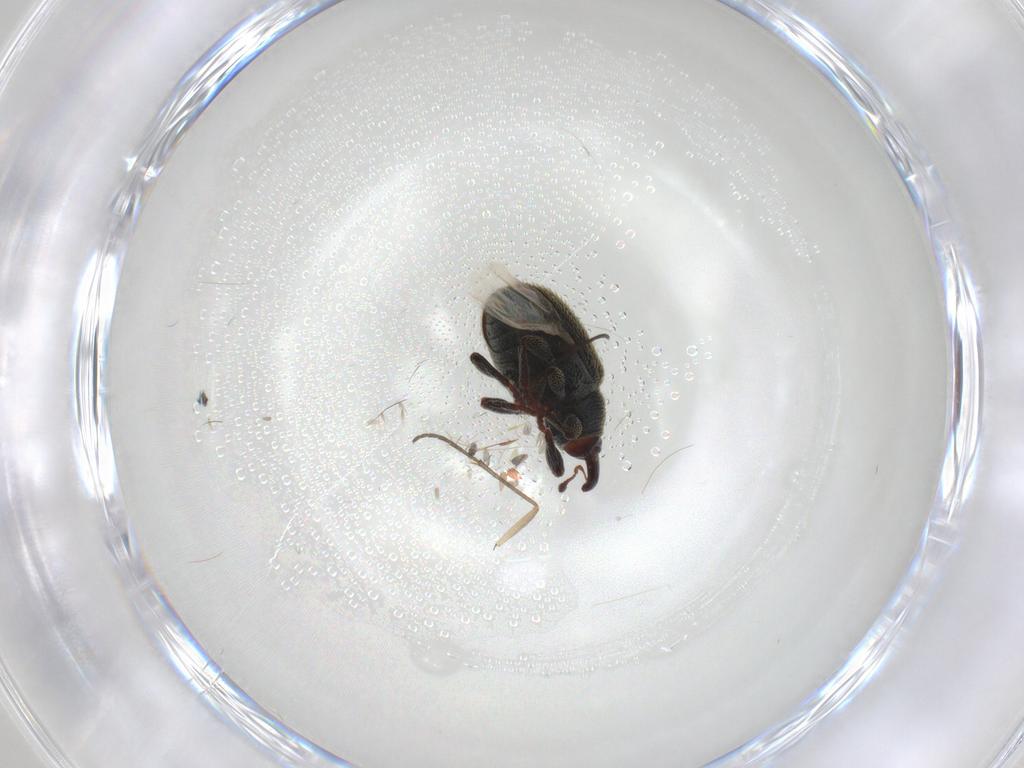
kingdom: Animalia
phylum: Arthropoda
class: Insecta
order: Coleoptera
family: Curculionidae
